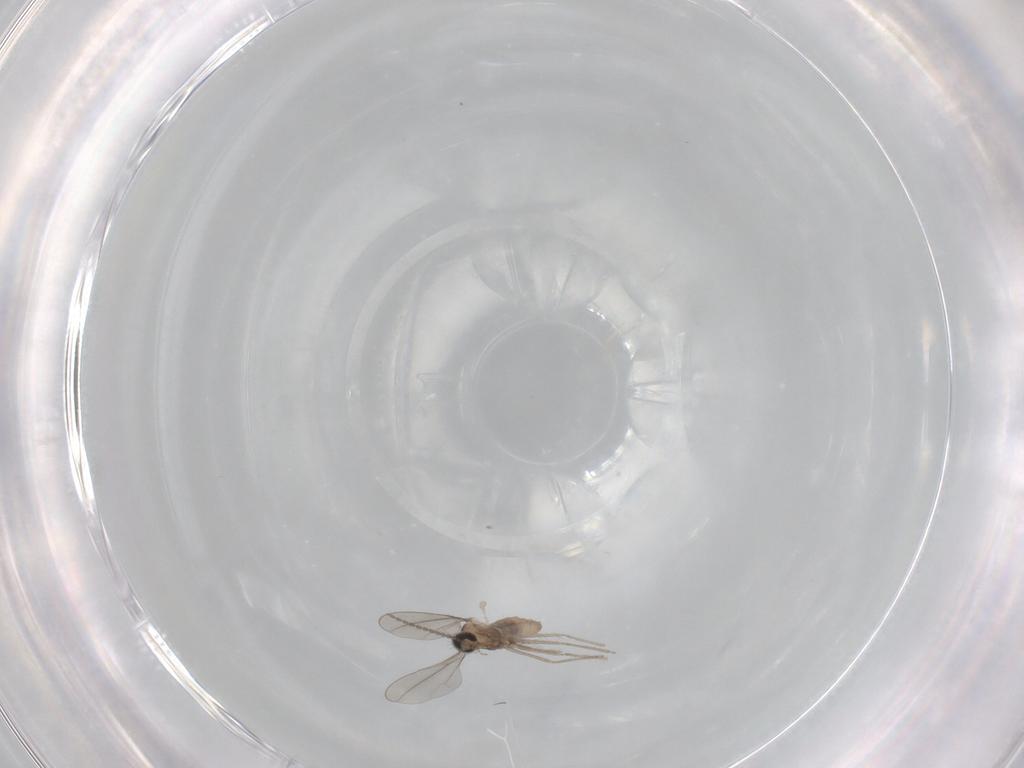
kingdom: Animalia
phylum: Arthropoda
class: Insecta
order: Diptera
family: Cecidomyiidae
